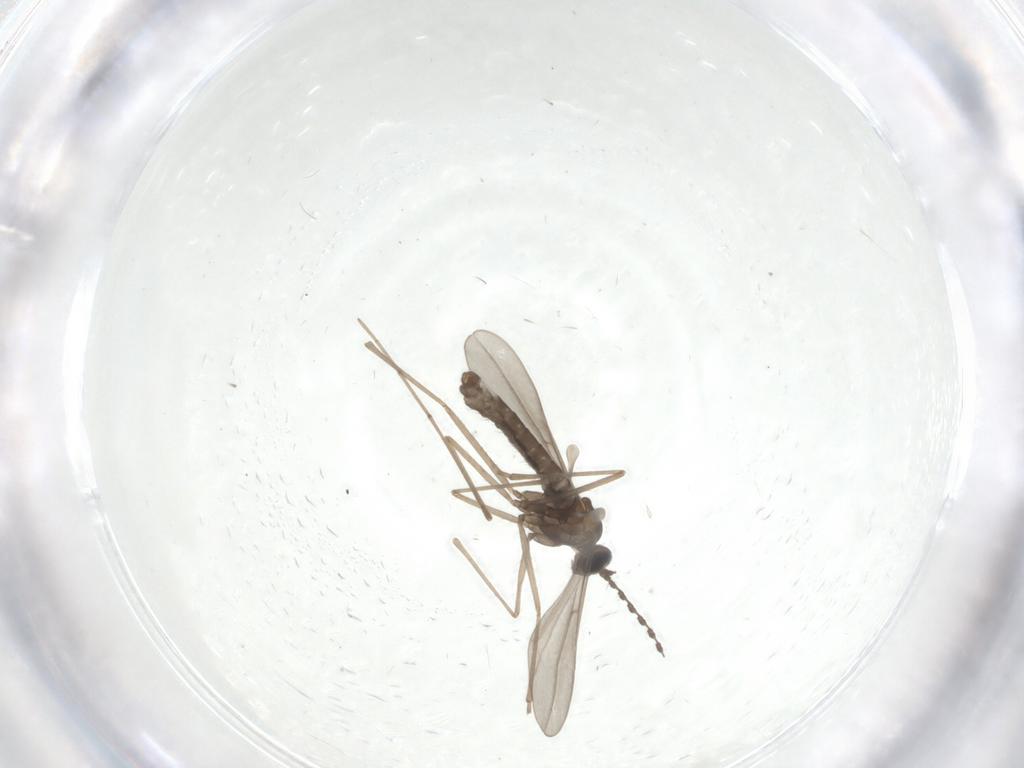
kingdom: Animalia
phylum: Arthropoda
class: Insecta
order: Diptera
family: Cecidomyiidae
